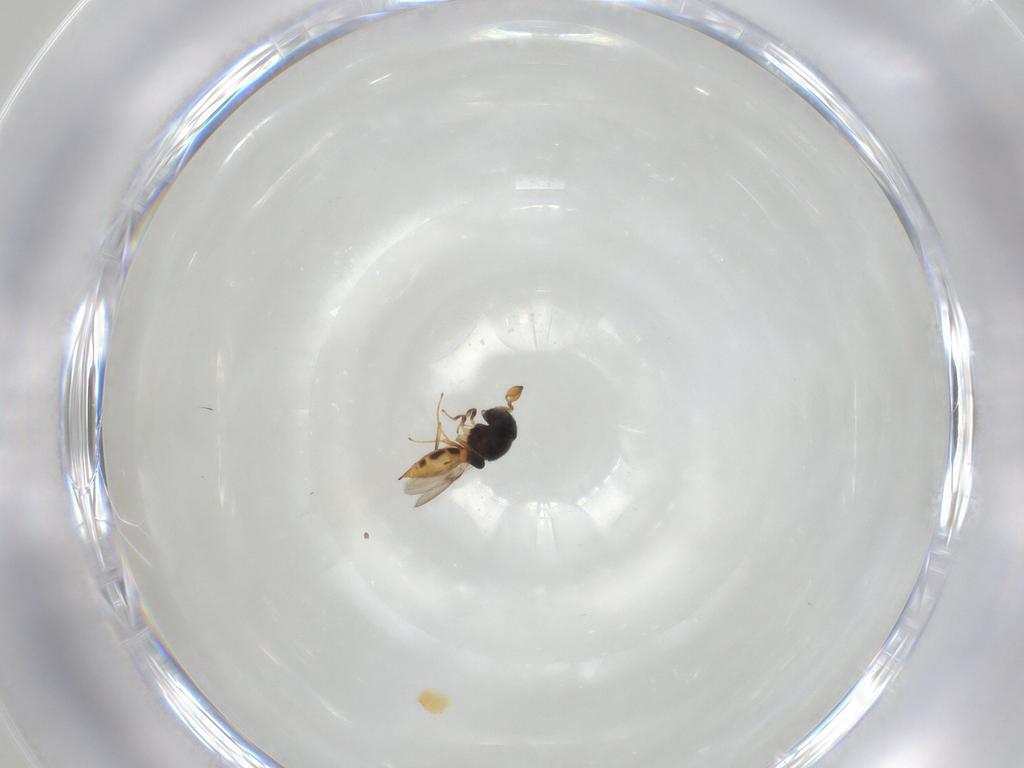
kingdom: Animalia
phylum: Arthropoda
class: Insecta
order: Hymenoptera
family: Scelionidae
